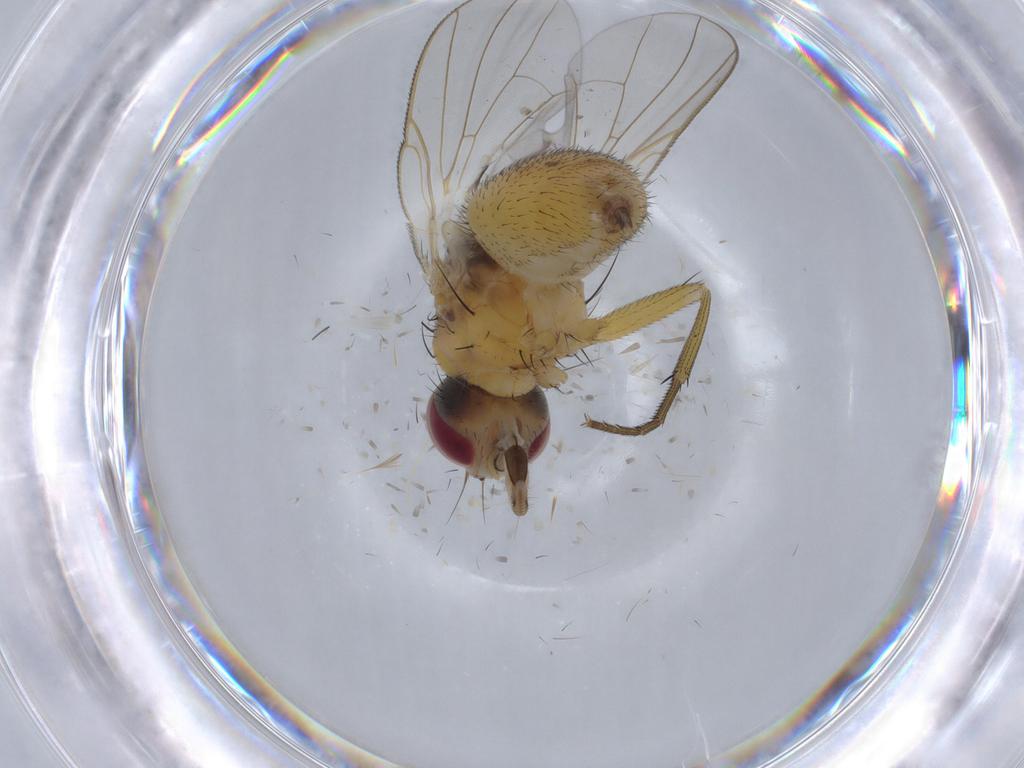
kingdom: Animalia
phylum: Arthropoda
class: Insecta
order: Diptera
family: Muscidae
